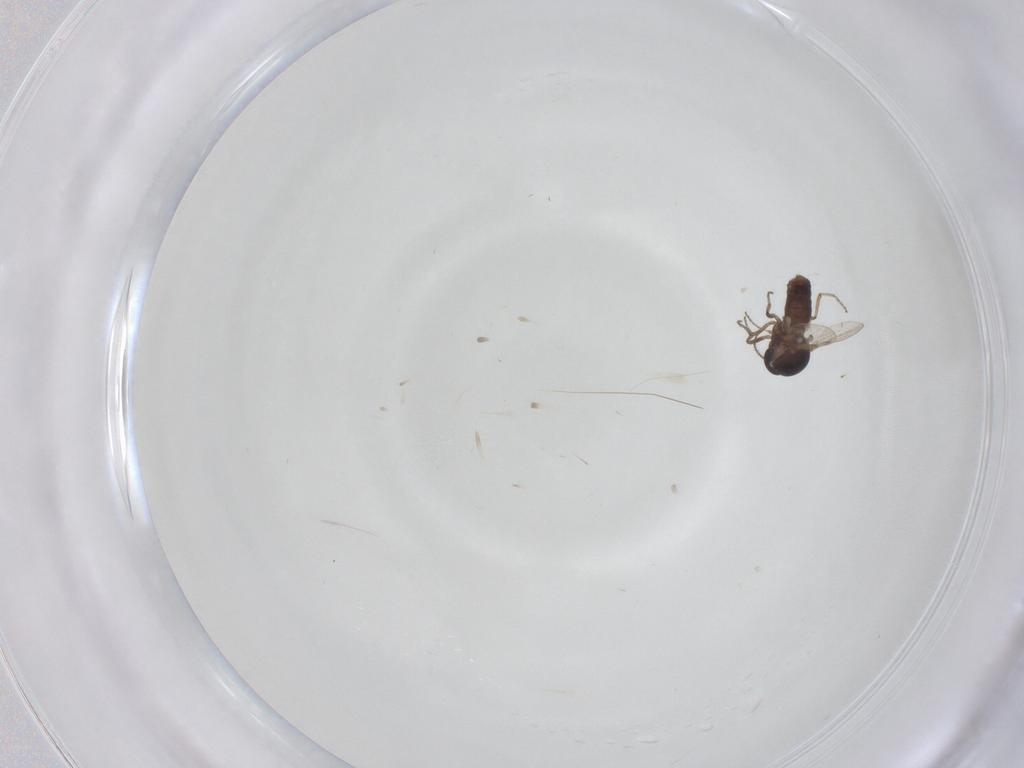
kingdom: Animalia
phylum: Arthropoda
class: Insecta
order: Diptera
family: Ceratopogonidae
